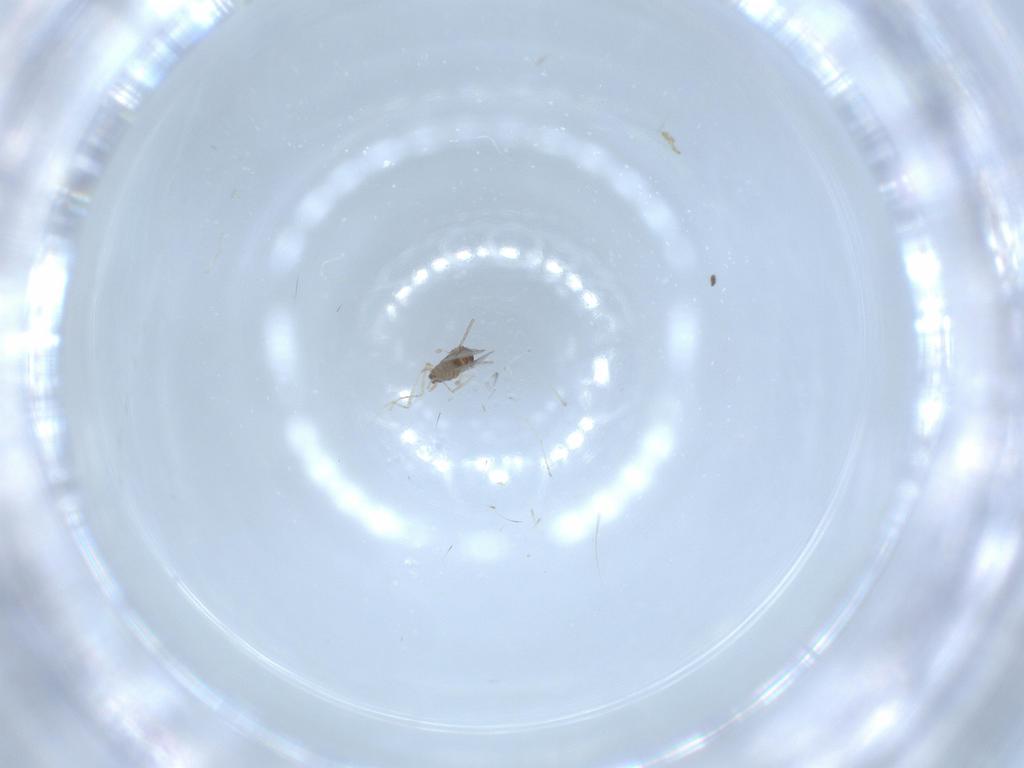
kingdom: Animalia
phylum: Arthropoda
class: Insecta
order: Diptera
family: Cecidomyiidae
